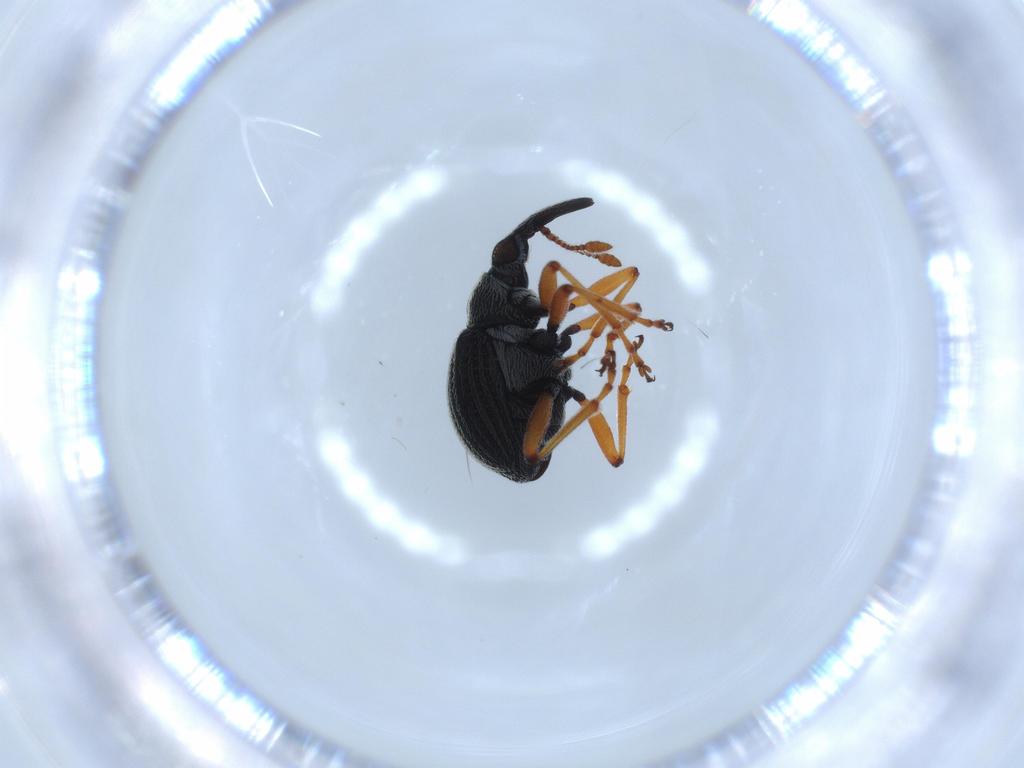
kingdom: Animalia
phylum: Arthropoda
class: Insecta
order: Coleoptera
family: Brentidae
